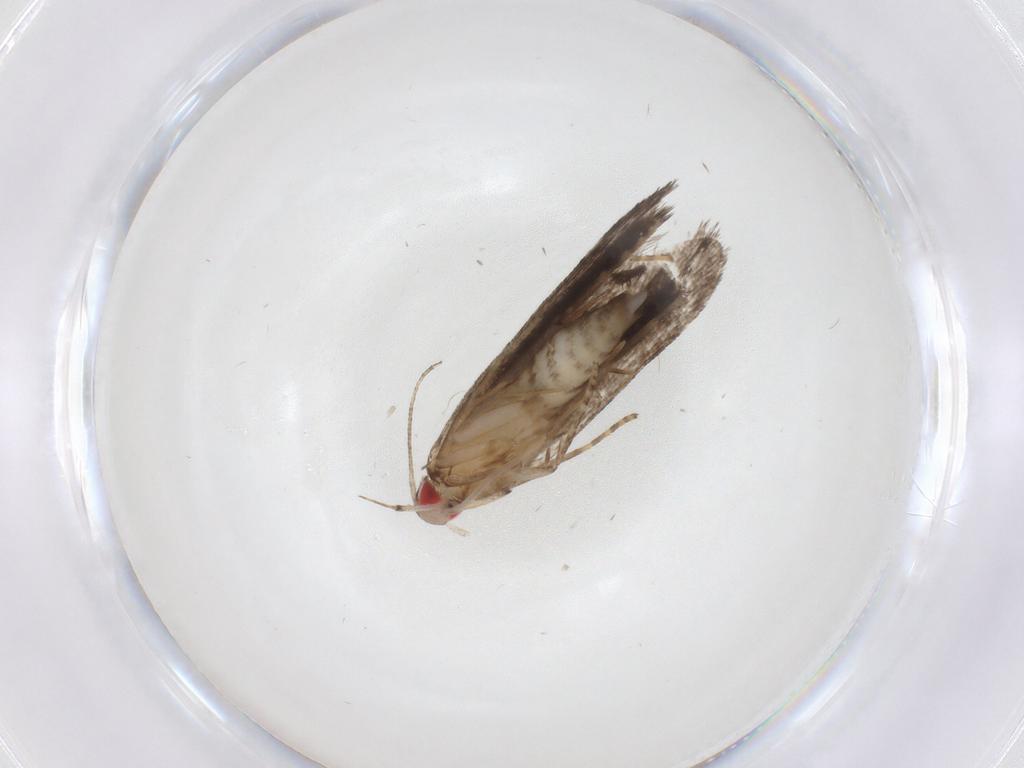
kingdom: Animalia
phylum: Arthropoda
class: Insecta
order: Lepidoptera
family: Gelechiidae
